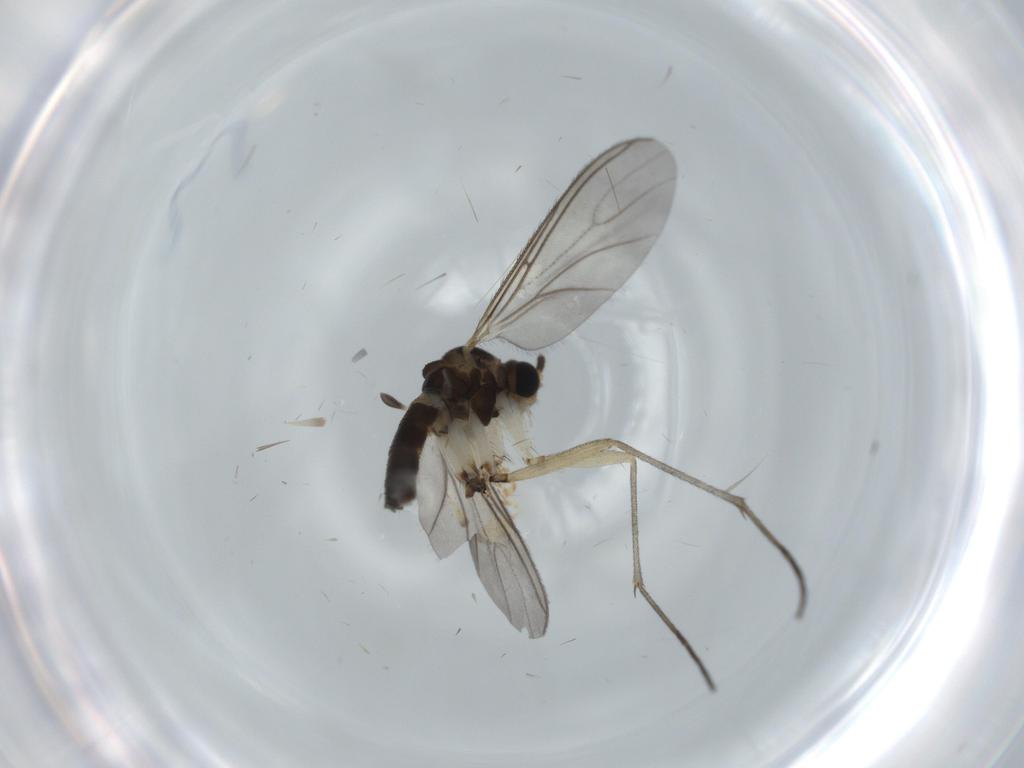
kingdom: Animalia
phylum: Arthropoda
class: Insecta
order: Diptera
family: Sciaridae
